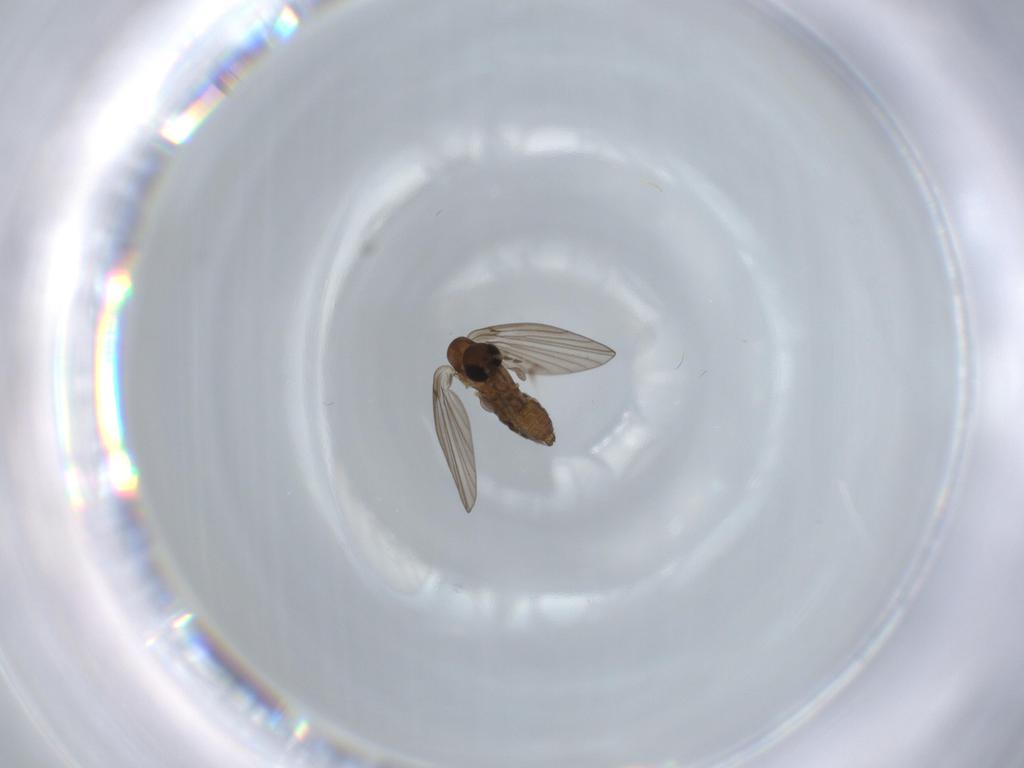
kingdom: Animalia
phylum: Arthropoda
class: Insecta
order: Diptera
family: Psychodidae
